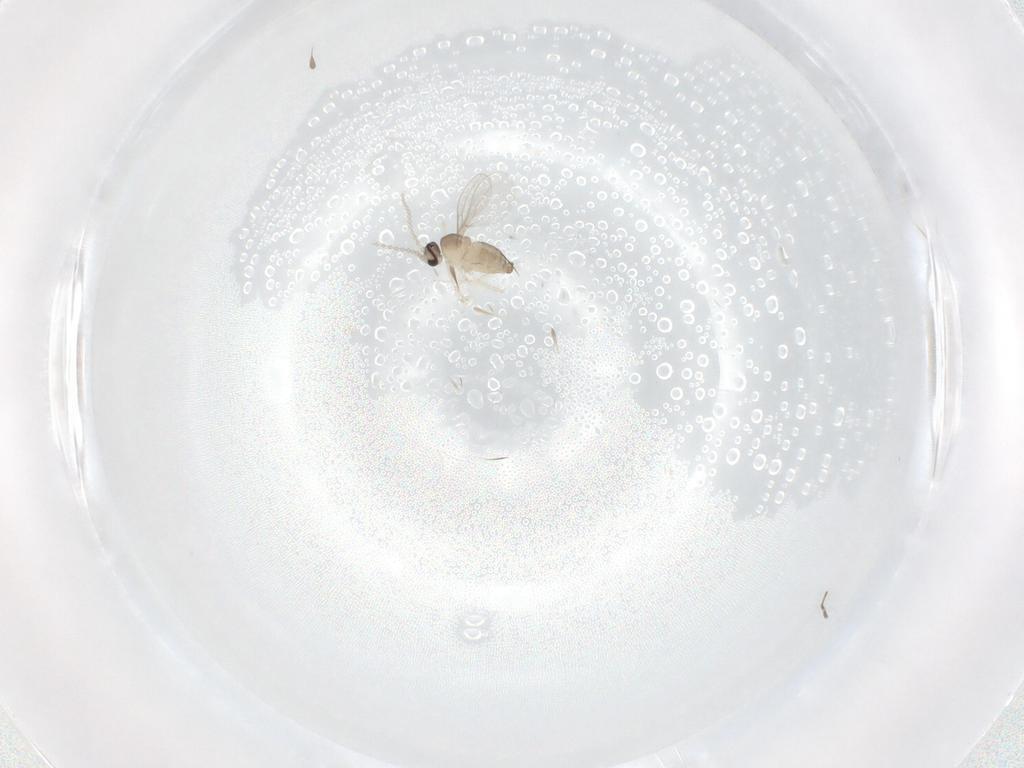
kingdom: Animalia
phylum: Arthropoda
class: Insecta
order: Diptera
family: Cecidomyiidae
